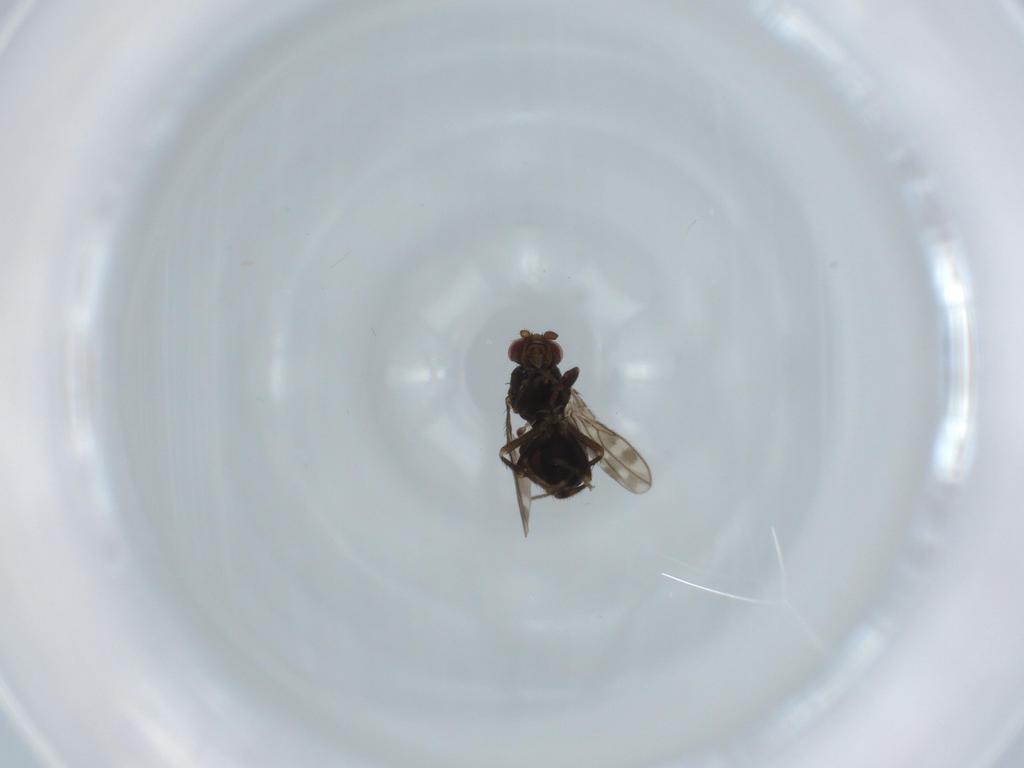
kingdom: Animalia
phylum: Arthropoda
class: Insecta
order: Diptera
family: Sphaeroceridae
